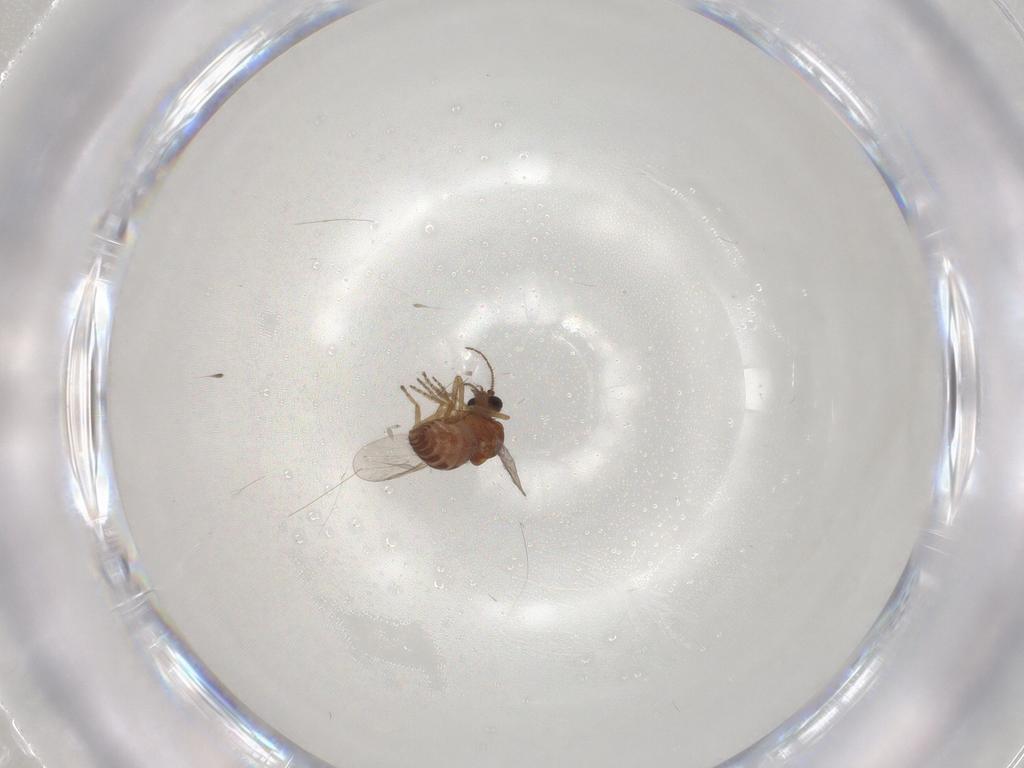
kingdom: Animalia
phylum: Arthropoda
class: Insecta
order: Diptera
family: Ceratopogonidae
